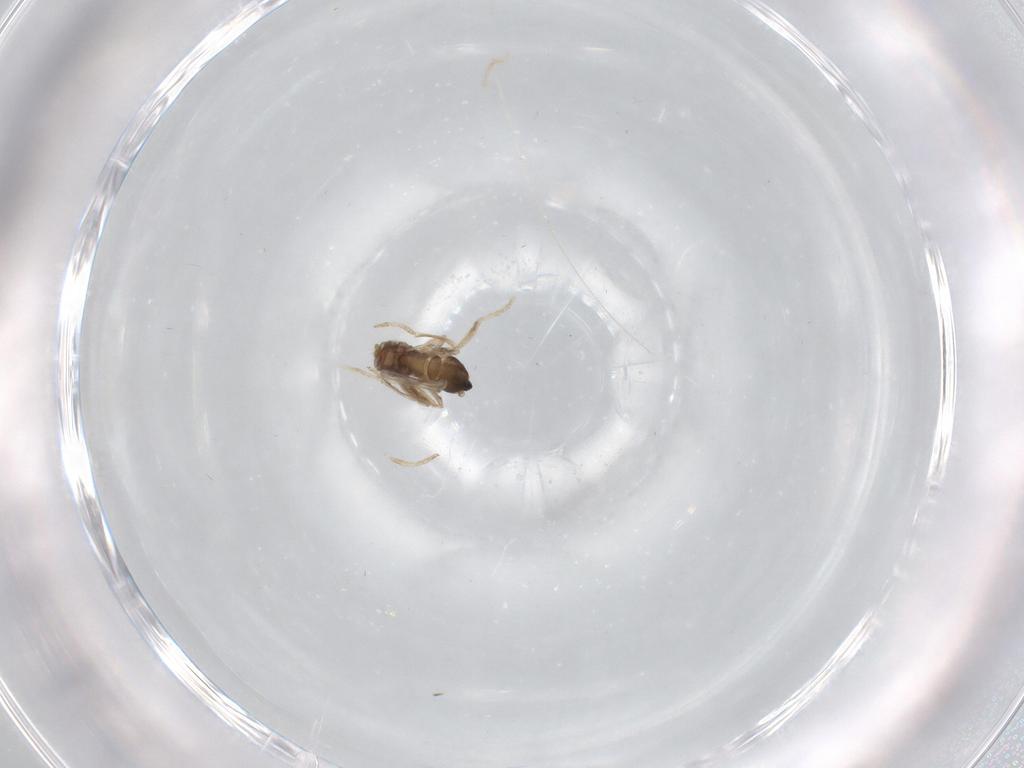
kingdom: Animalia
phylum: Arthropoda
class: Insecta
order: Diptera
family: Cecidomyiidae
